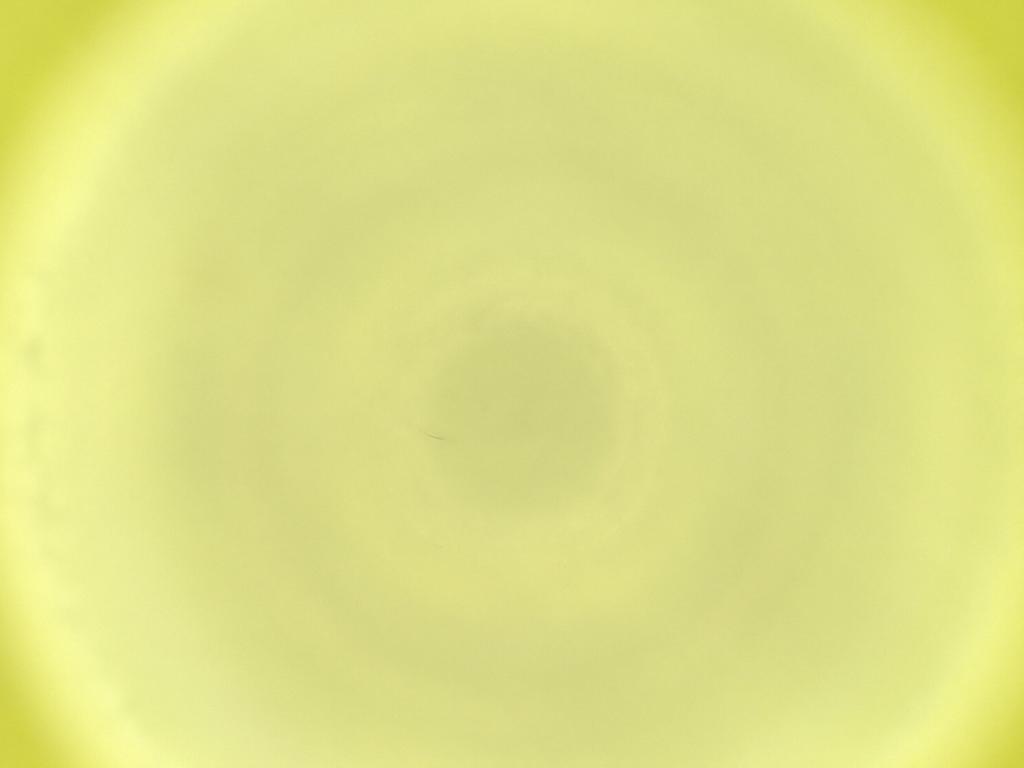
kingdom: Animalia
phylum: Arthropoda
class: Insecta
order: Diptera
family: Cecidomyiidae
